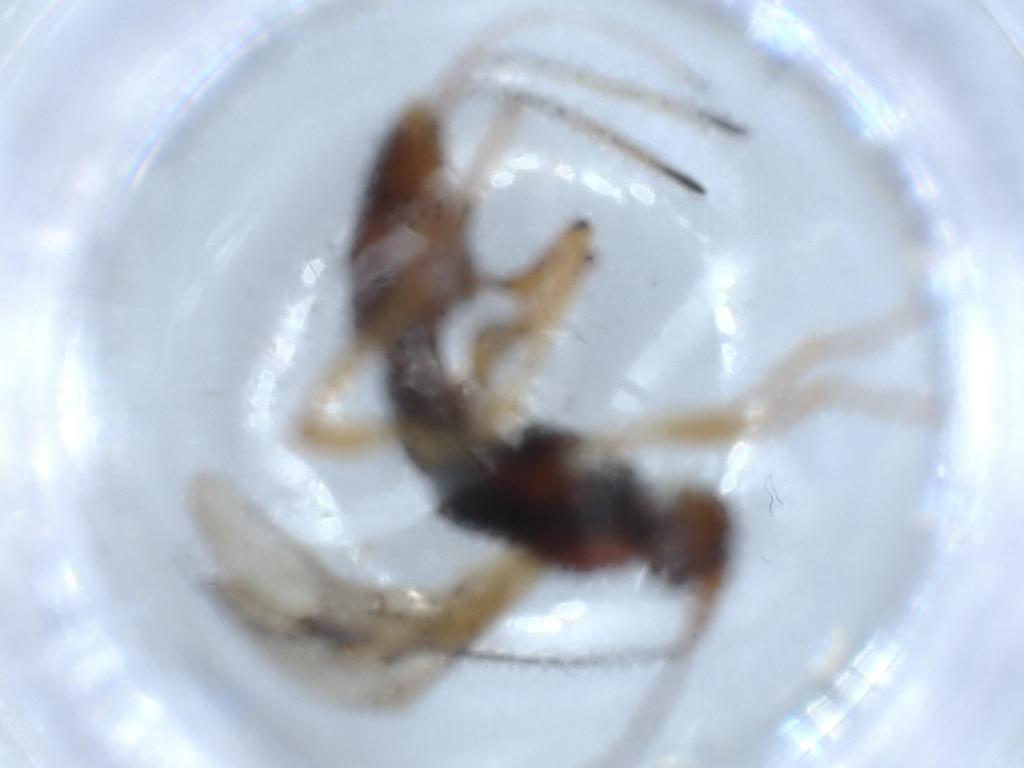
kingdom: Animalia
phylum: Arthropoda
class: Insecta
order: Hymenoptera
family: Mymaridae
